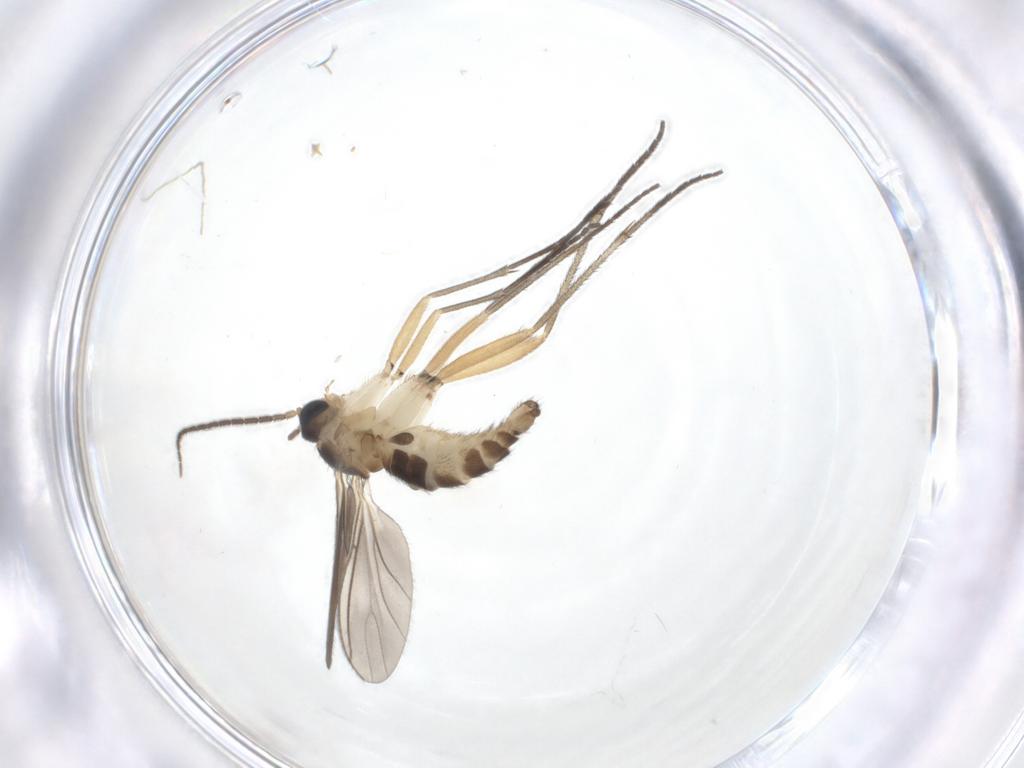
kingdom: Animalia
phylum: Arthropoda
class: Insecta
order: Diptera
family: Sciaridae
